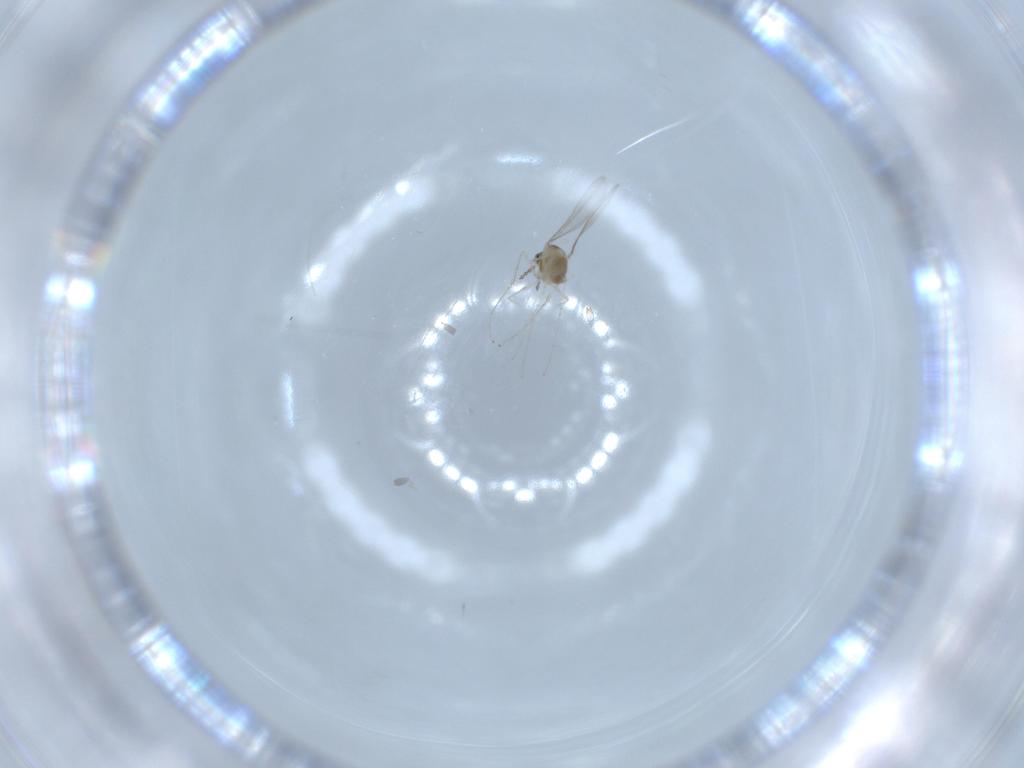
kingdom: Animalia
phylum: Arthropoda
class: Insecta
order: Diptera
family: Cecidomyiidae
